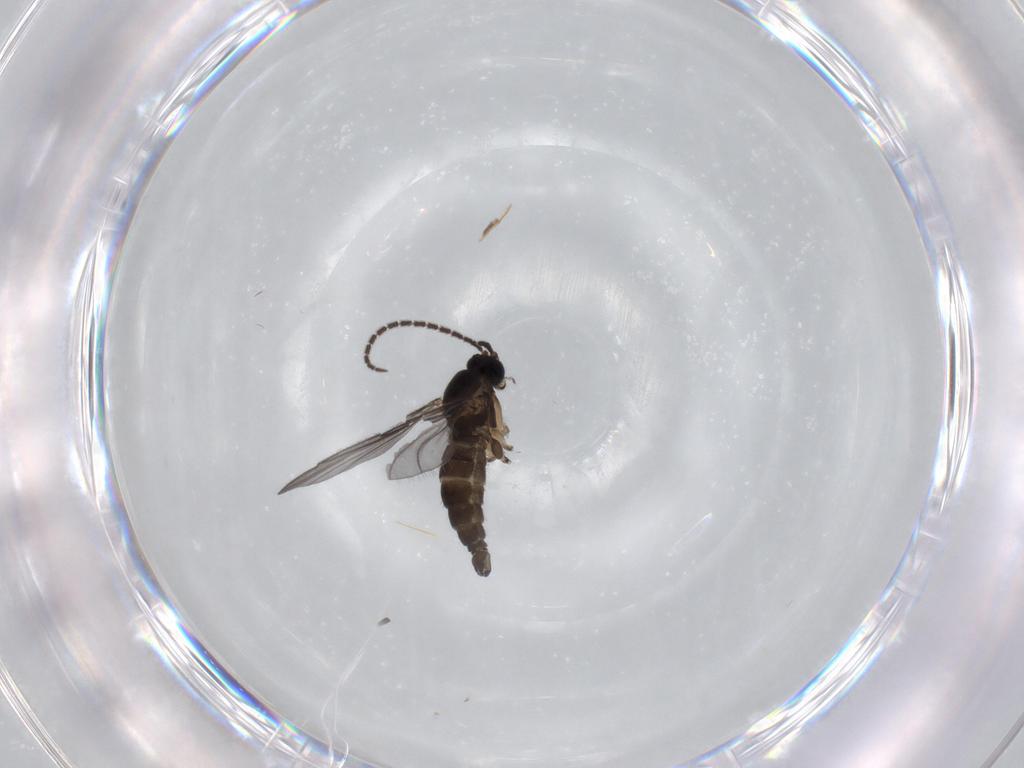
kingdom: Animalia
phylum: Arthropoda
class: Insecta
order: Diptera
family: Sciaridae
